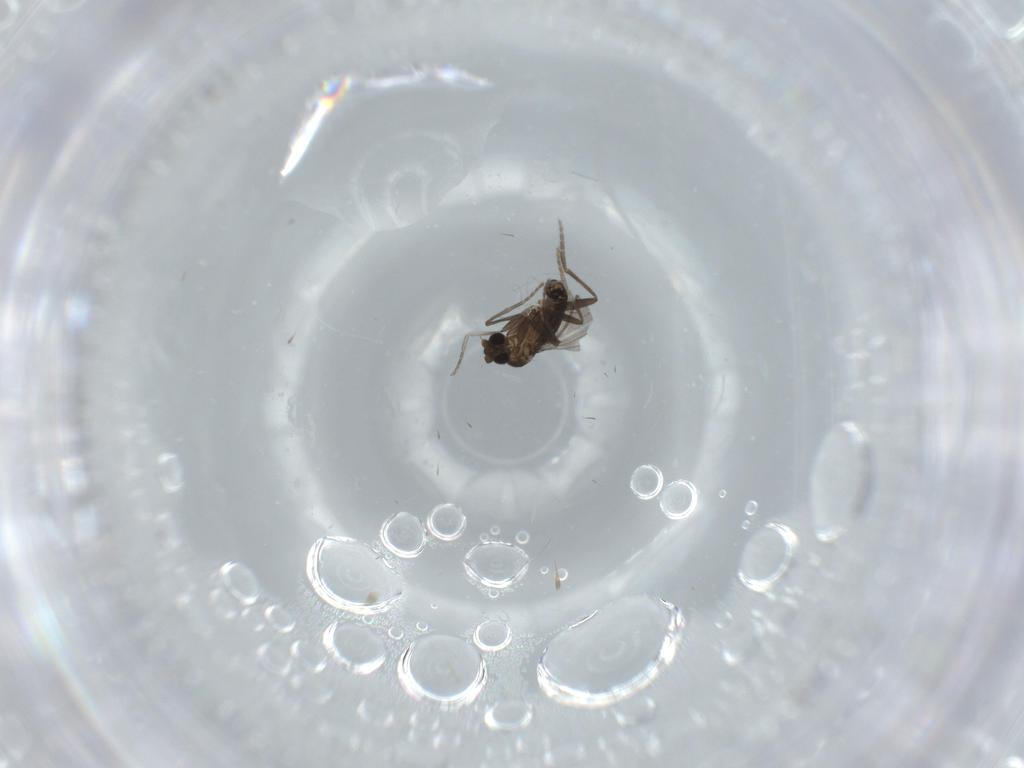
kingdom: Animalia
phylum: Arthropoda
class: Insecta
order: Diptera
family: Phoridae
